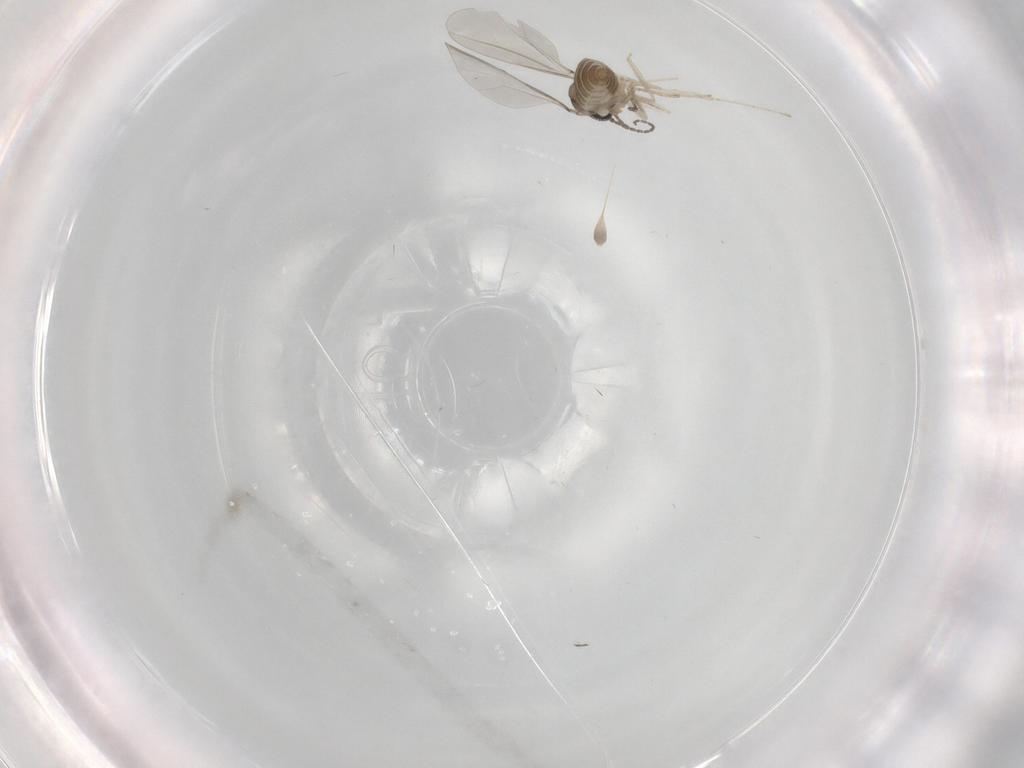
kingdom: Animalia
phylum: Arthropoda
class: Insecta
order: Diptera
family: Cecidomyiidae
